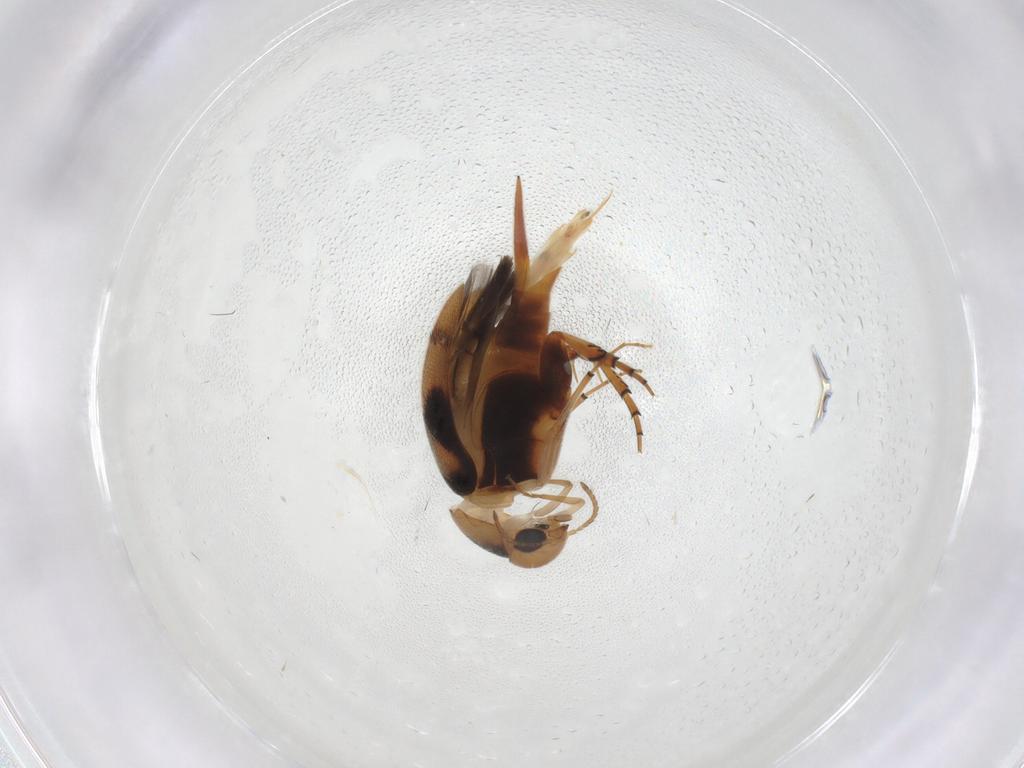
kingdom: Animalia
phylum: Arthropoda
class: Insecta
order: Coleoptera
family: Mordellidae
